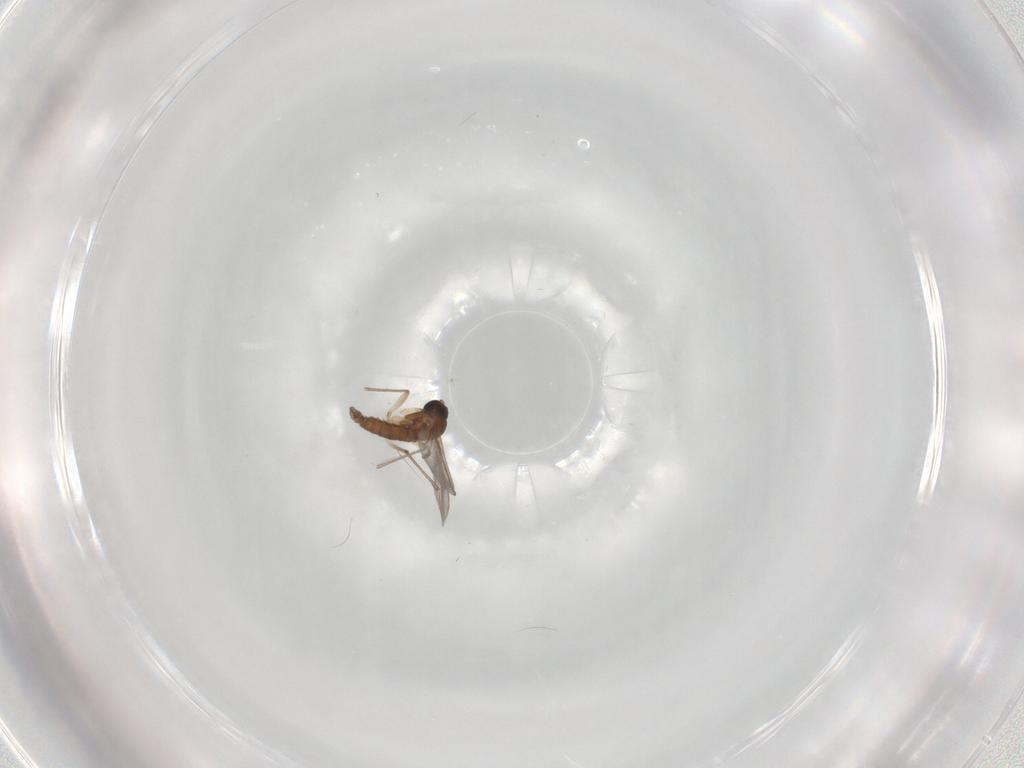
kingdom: Animalia
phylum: Arthropoda
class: Insecta
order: Diptera
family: Sciaridae
